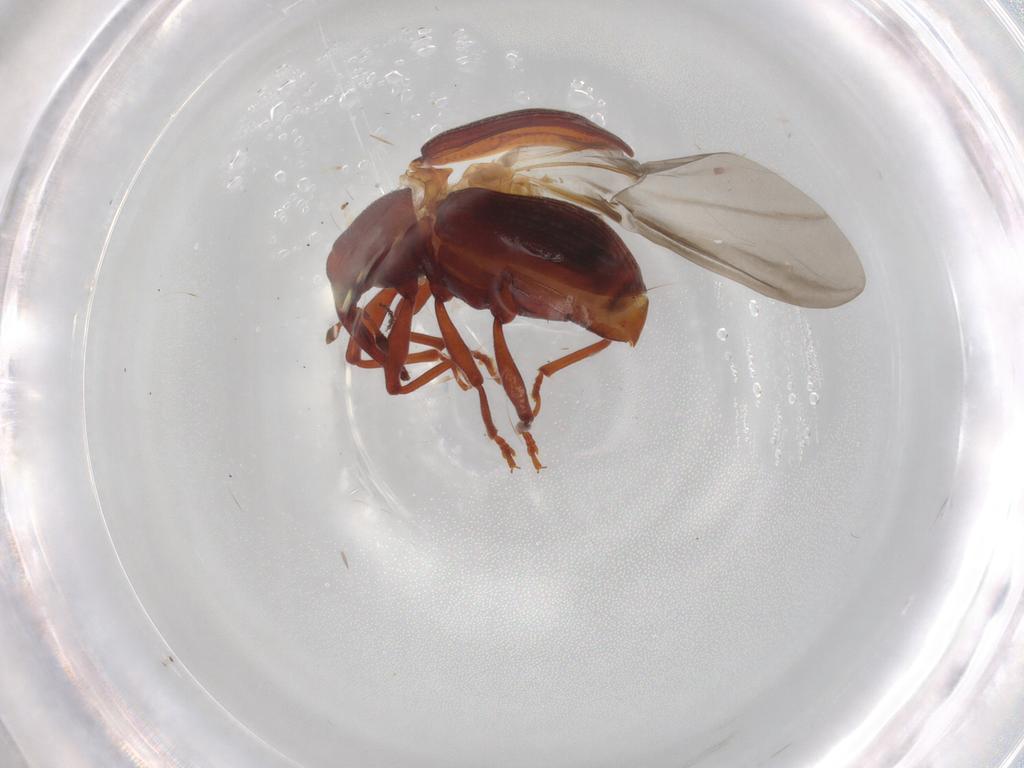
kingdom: Animalia
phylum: Arthropoda
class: Insecta
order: Coleoptera
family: Curculionidae
